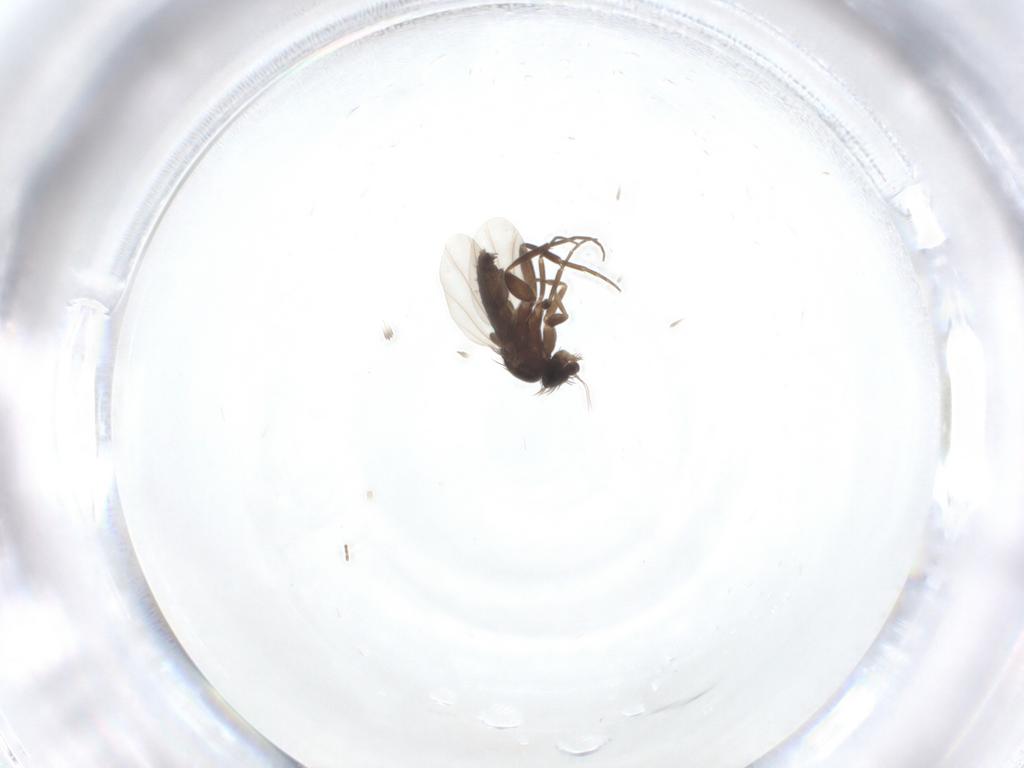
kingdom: Animalia
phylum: Arthropoda
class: Insecta
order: Diptera
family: Phoridae
